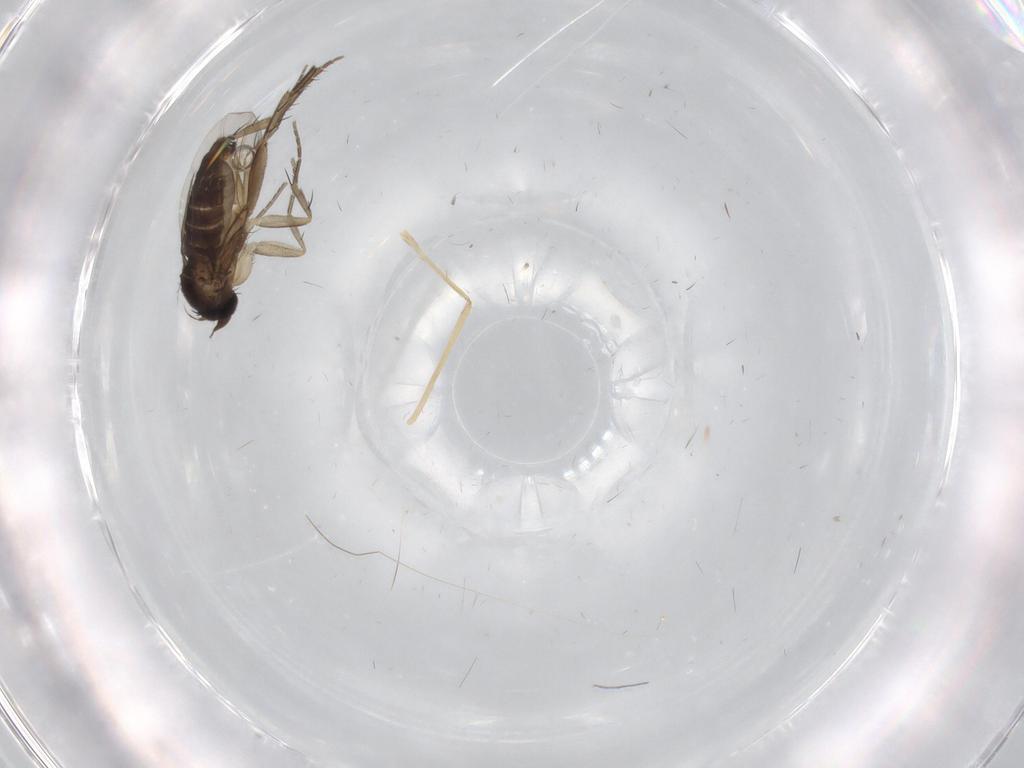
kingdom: Animalia
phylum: Arthropoda
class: Insecta
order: Diptera
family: Phoridae
